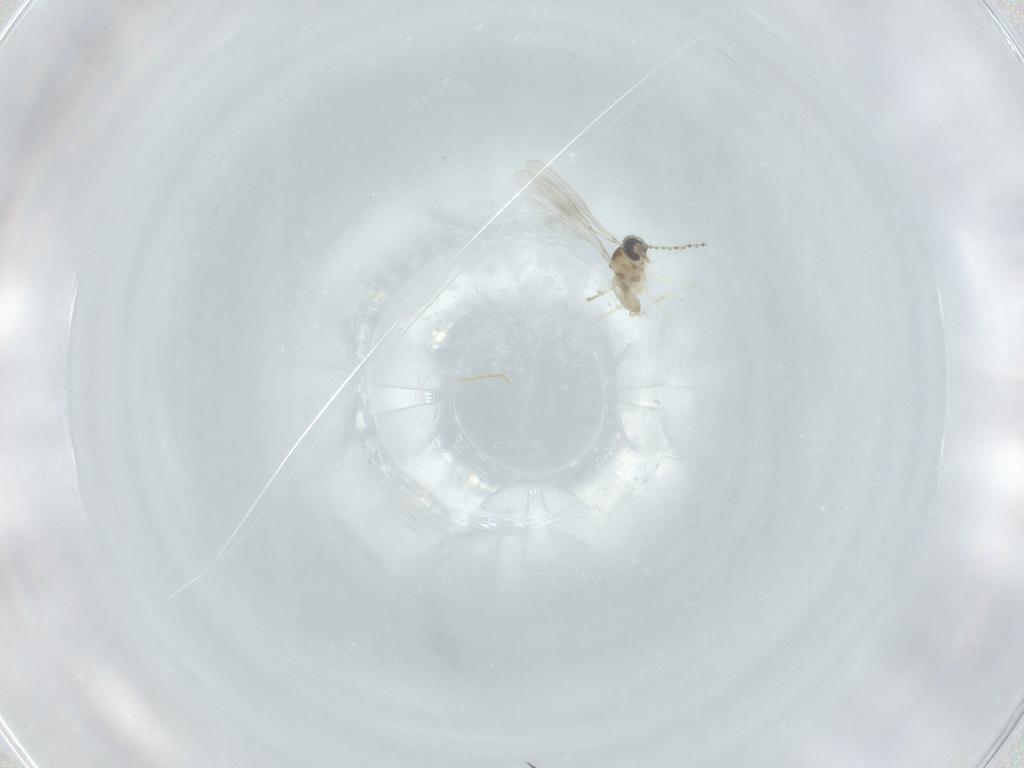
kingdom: Animalia
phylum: Arthropoda
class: Insecta
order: Diptera
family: Cecidomyiidae
